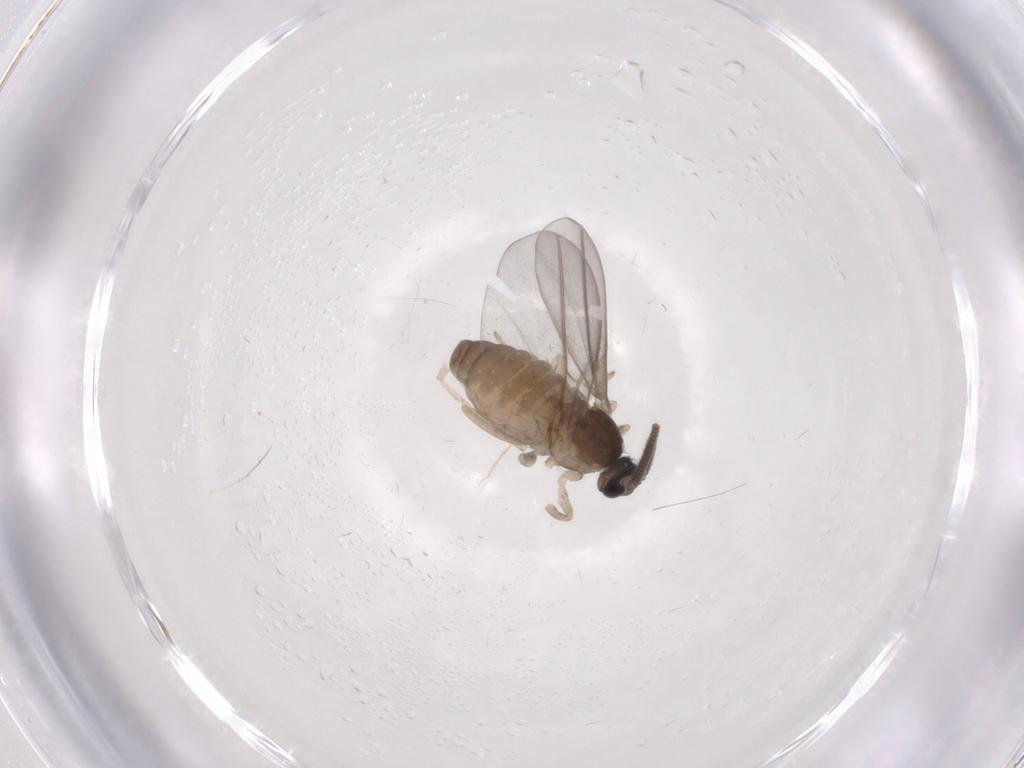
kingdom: Animalia
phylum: Arthropoda
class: Insecta
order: Diptera
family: Cecidomyiidae
